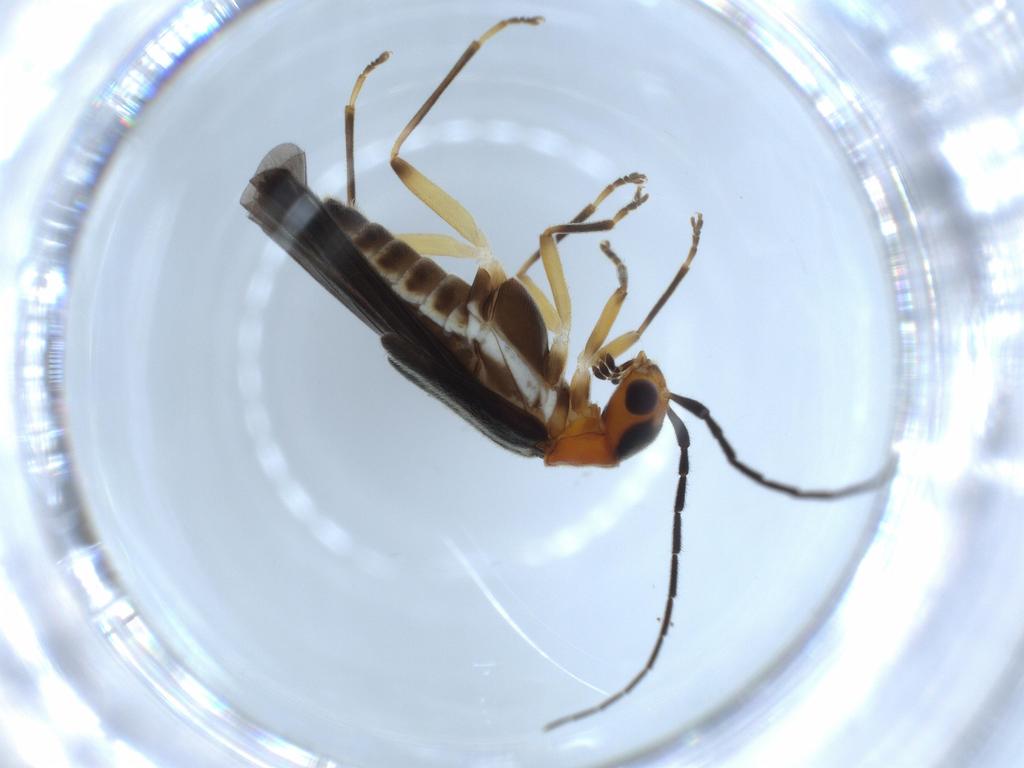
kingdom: Animalia
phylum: Arthropoda
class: Insecta
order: Coleoptera
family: Cantharidae
